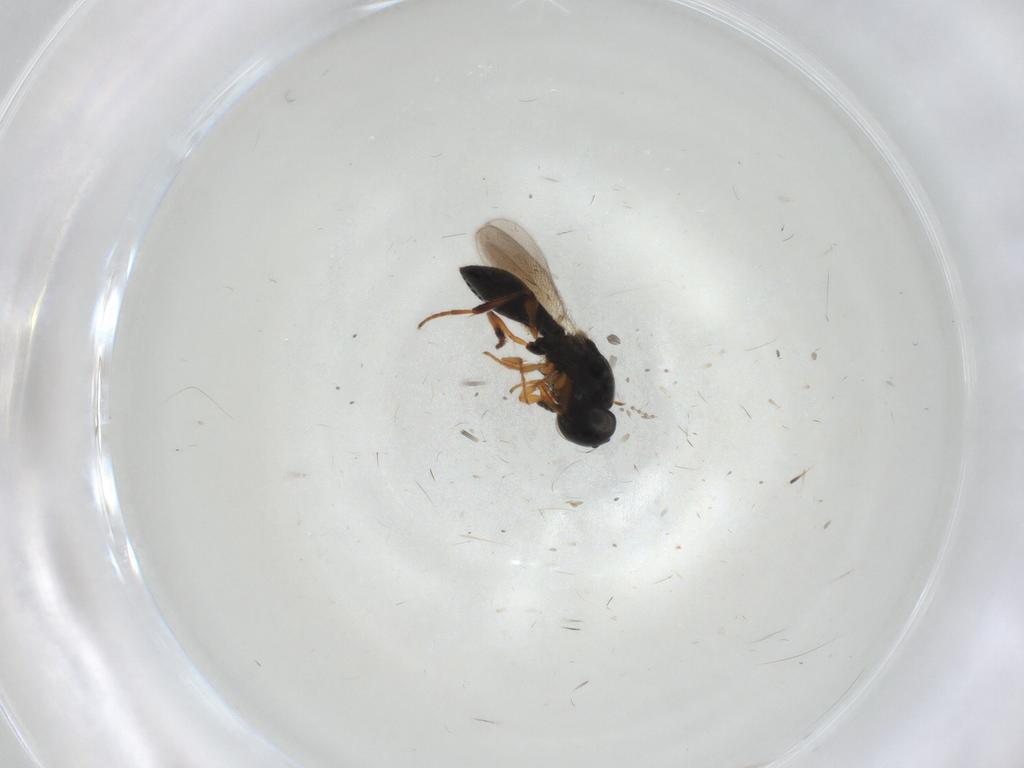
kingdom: Animalia
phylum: Arthropoda
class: Insecta
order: Hymenoptera
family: Platygastridae
